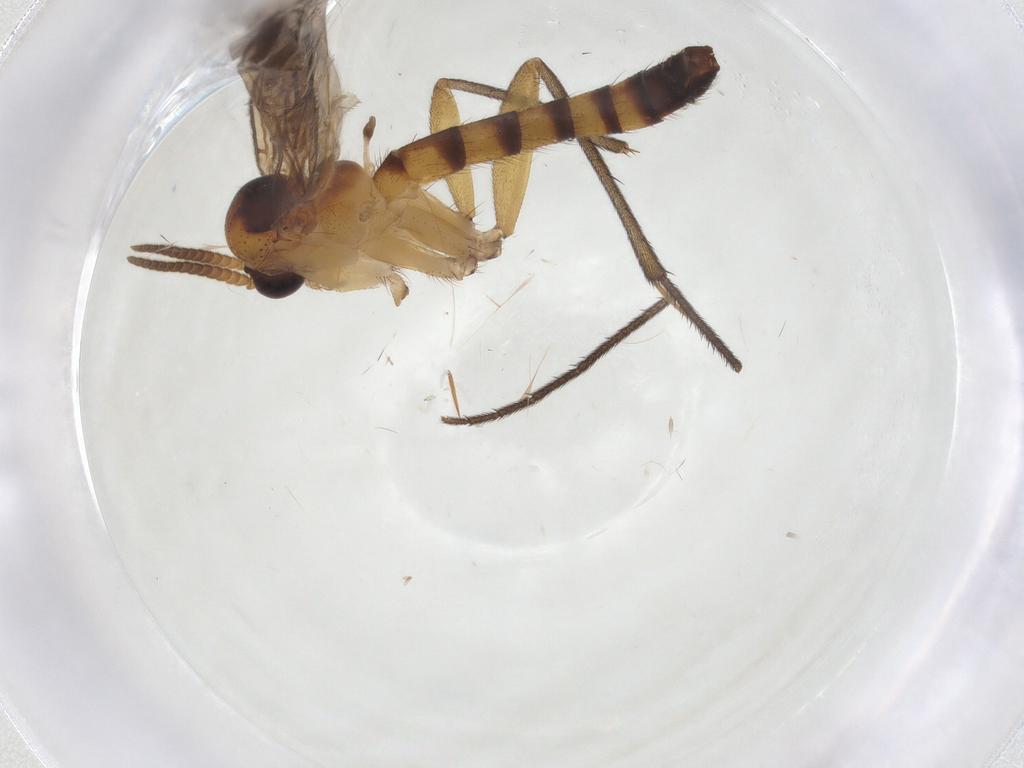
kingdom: Animalia
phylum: Arthropoda
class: Insecta
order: Diptera
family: Mycetophilidae
